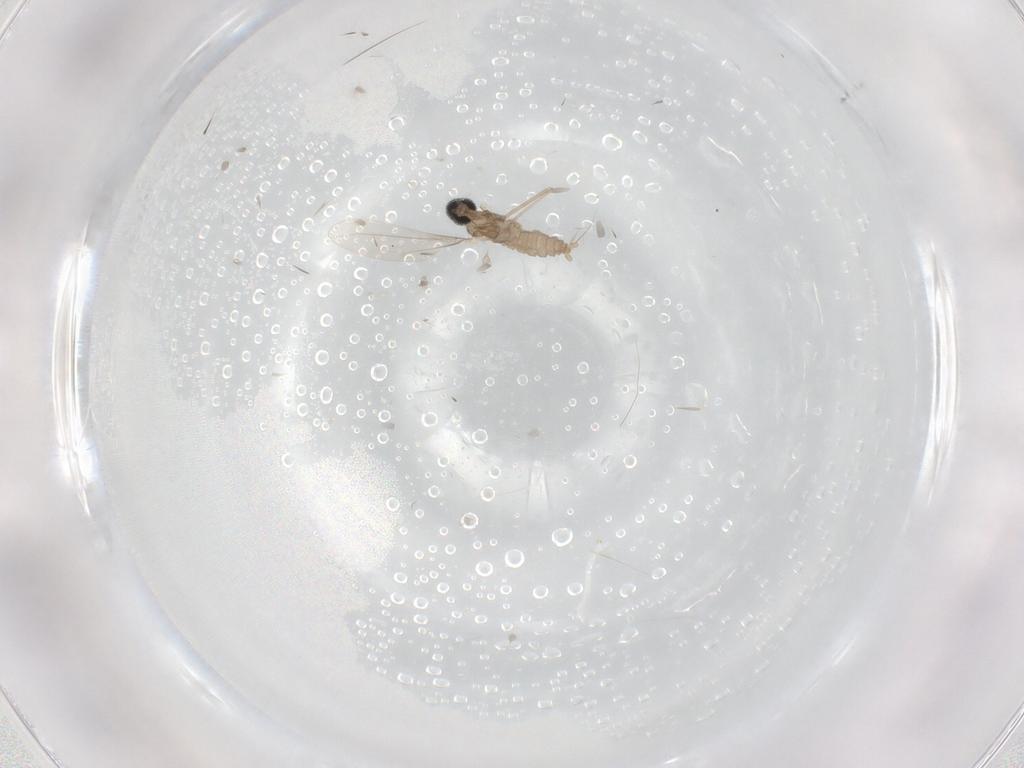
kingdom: Animalia
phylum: Arthropoda
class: Insecta
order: Diptera
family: Cecidomyiidae
